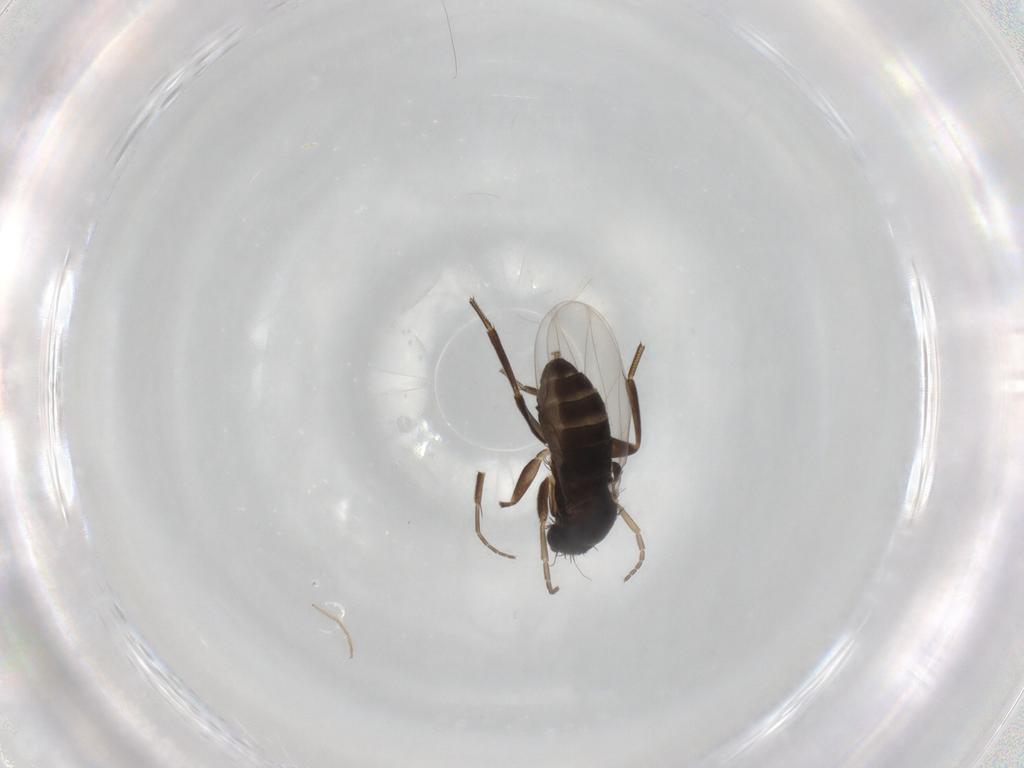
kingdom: Animalia
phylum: Arthropoda
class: Insecta
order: Diptera
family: Phoridae
